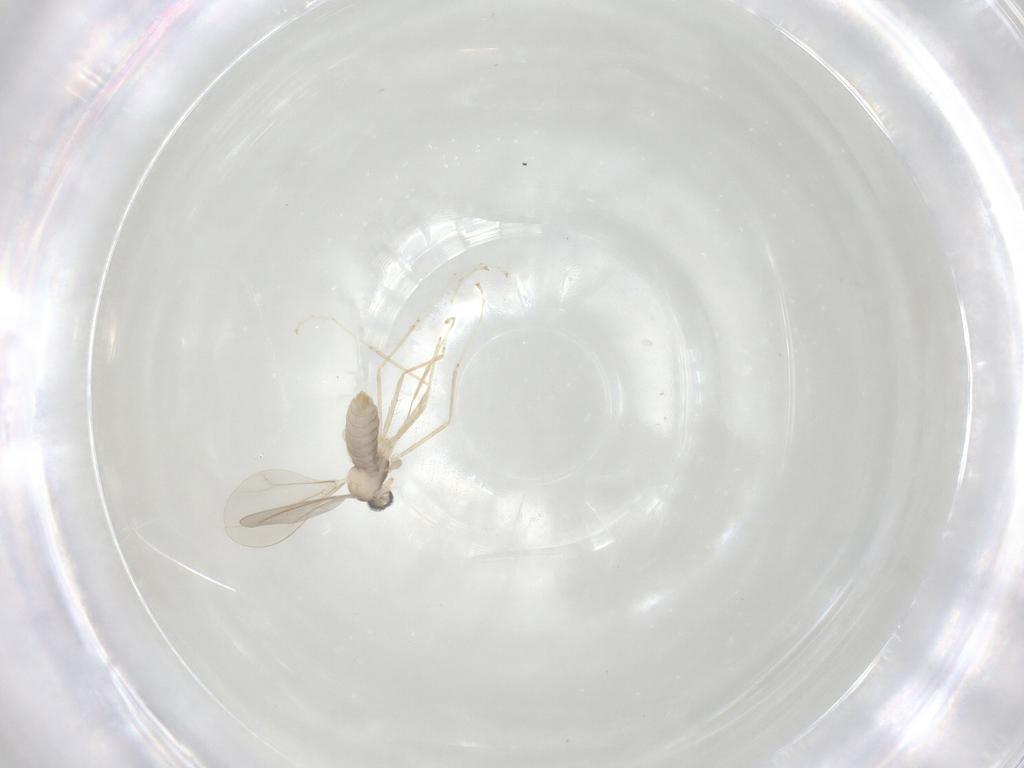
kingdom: Animalia
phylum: Arthropoda
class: Insecta
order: Diptera
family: Cecidomyiidae
